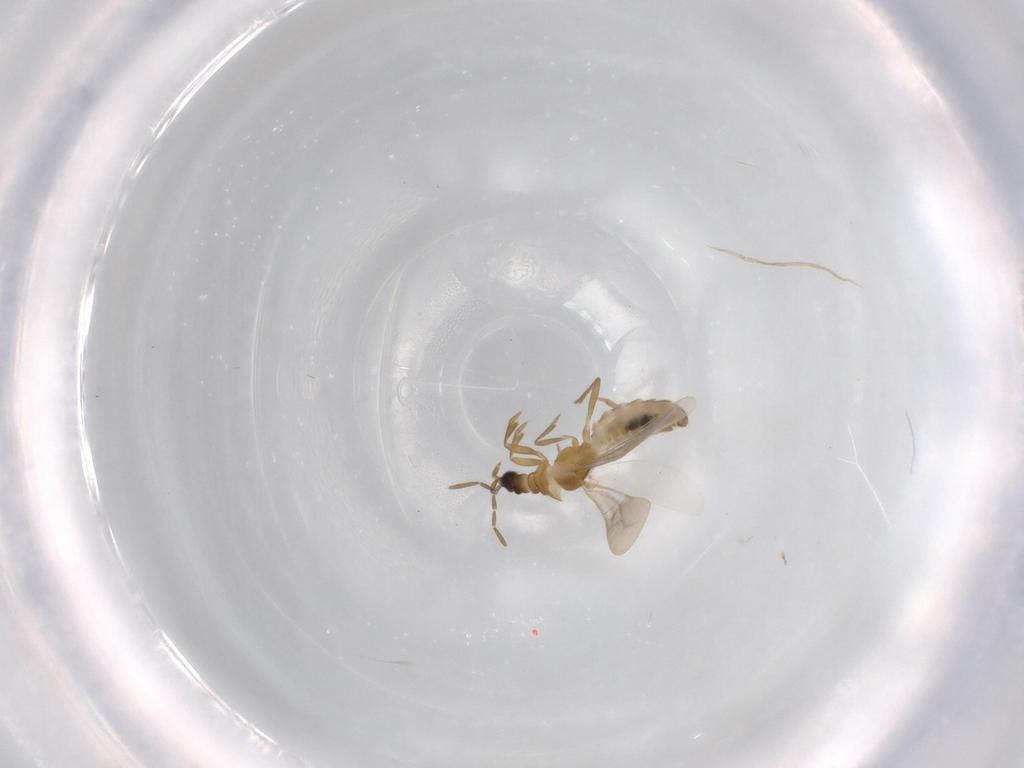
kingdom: Animalia
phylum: Arthropoda
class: Insecta
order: Hemiptera
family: Enicocephalidae
